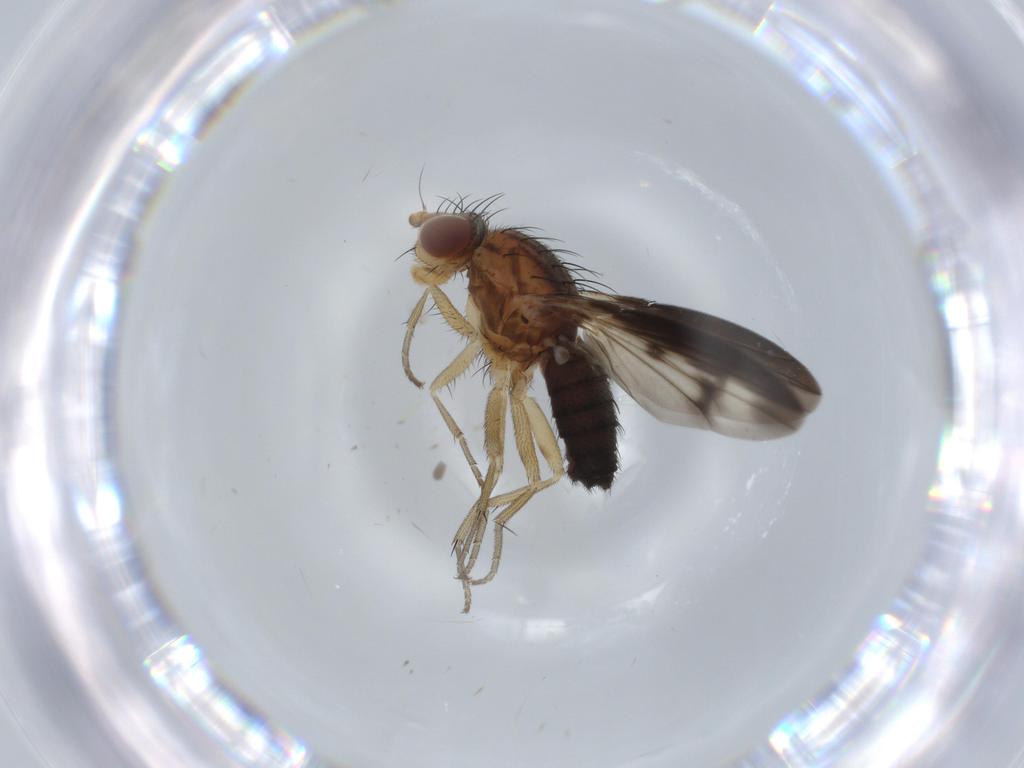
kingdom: Animalia
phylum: Arthropoda
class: Insecta
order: Diptera
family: Heleomyzidae
